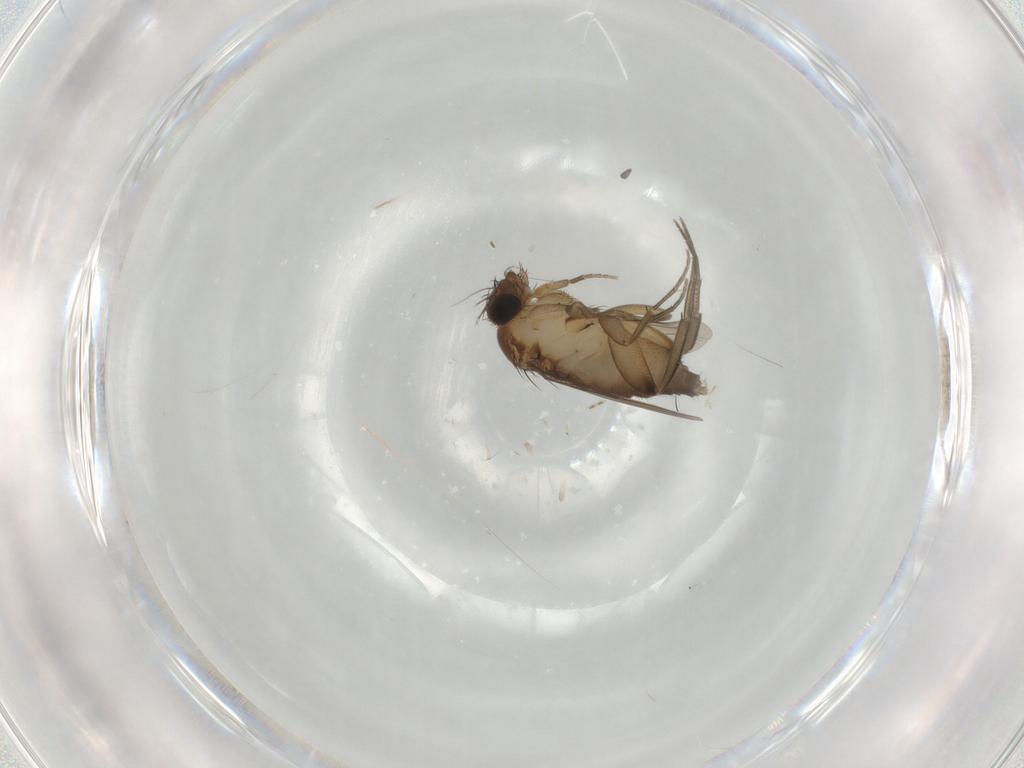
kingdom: Animalia
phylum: Arthropoda
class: Insecta
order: Diptera
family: Phoridae
